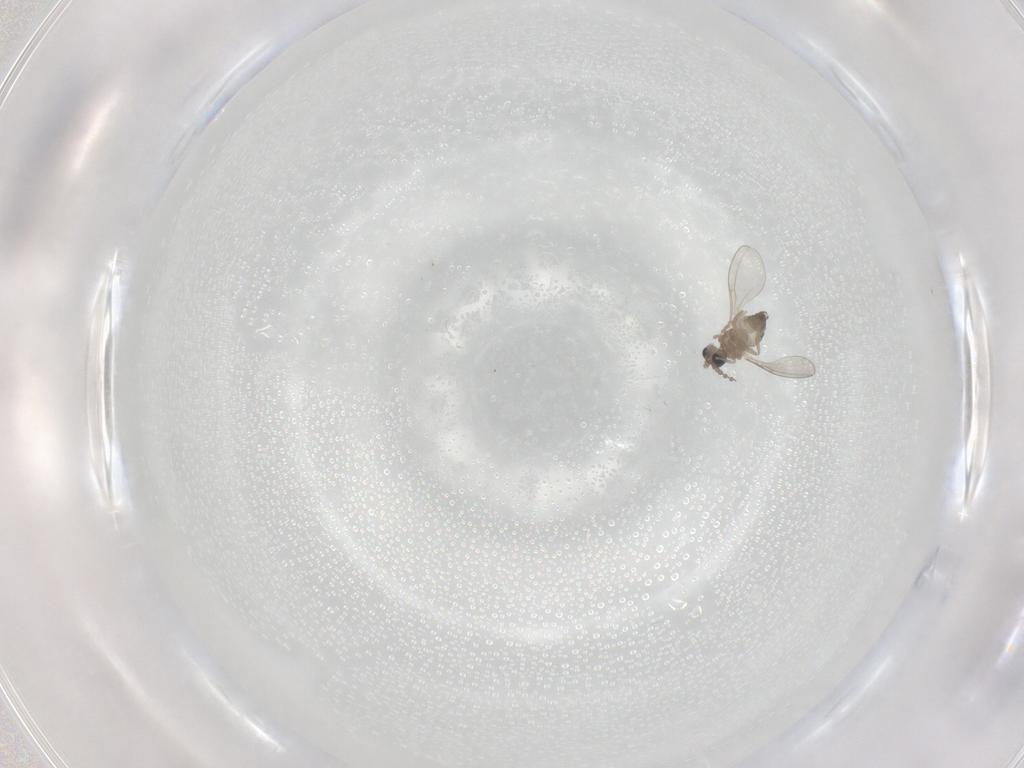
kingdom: Animalia
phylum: Arthropoda
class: Insecta
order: Diptera
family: Cecidomyiidae
